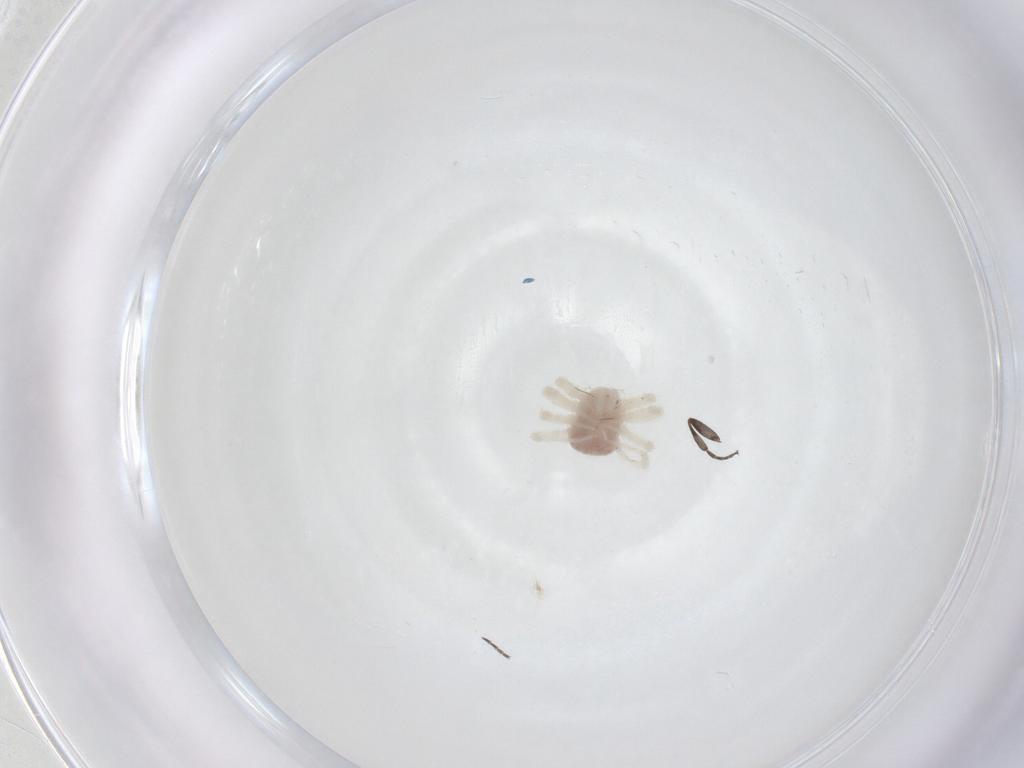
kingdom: Animalia
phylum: Arthropoda
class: Arachnida
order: Trombidiformes
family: Anystidae
